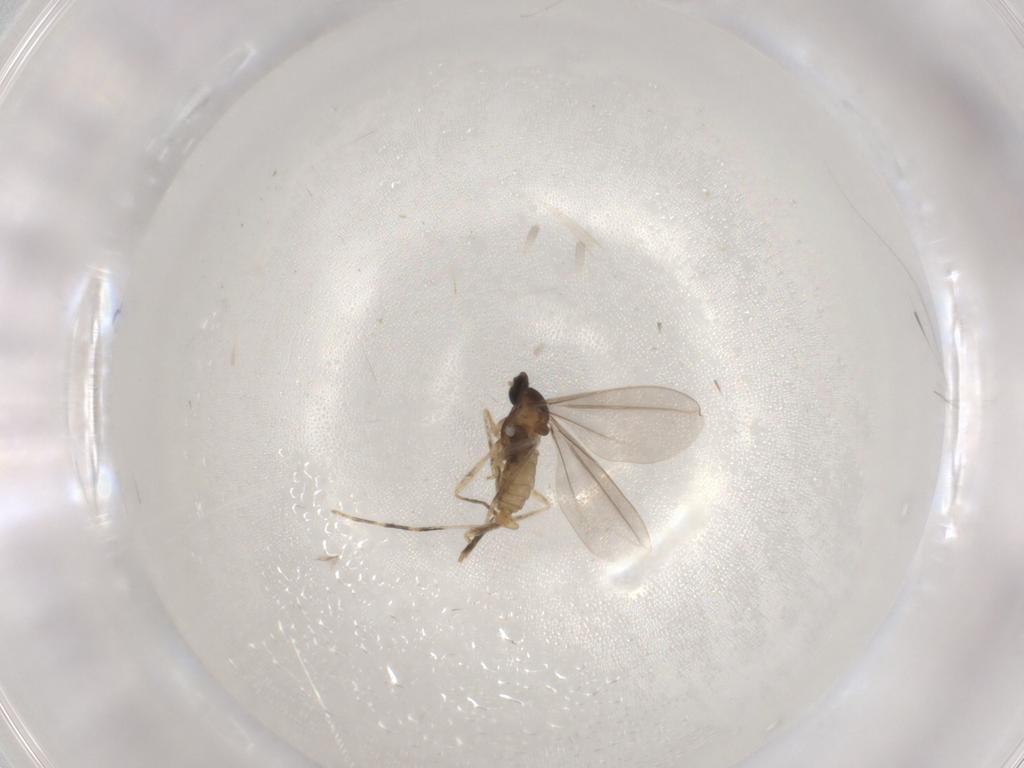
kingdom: Animalia
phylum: Arthropoda
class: Insecta
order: Diptera
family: Cecidomyiidae
